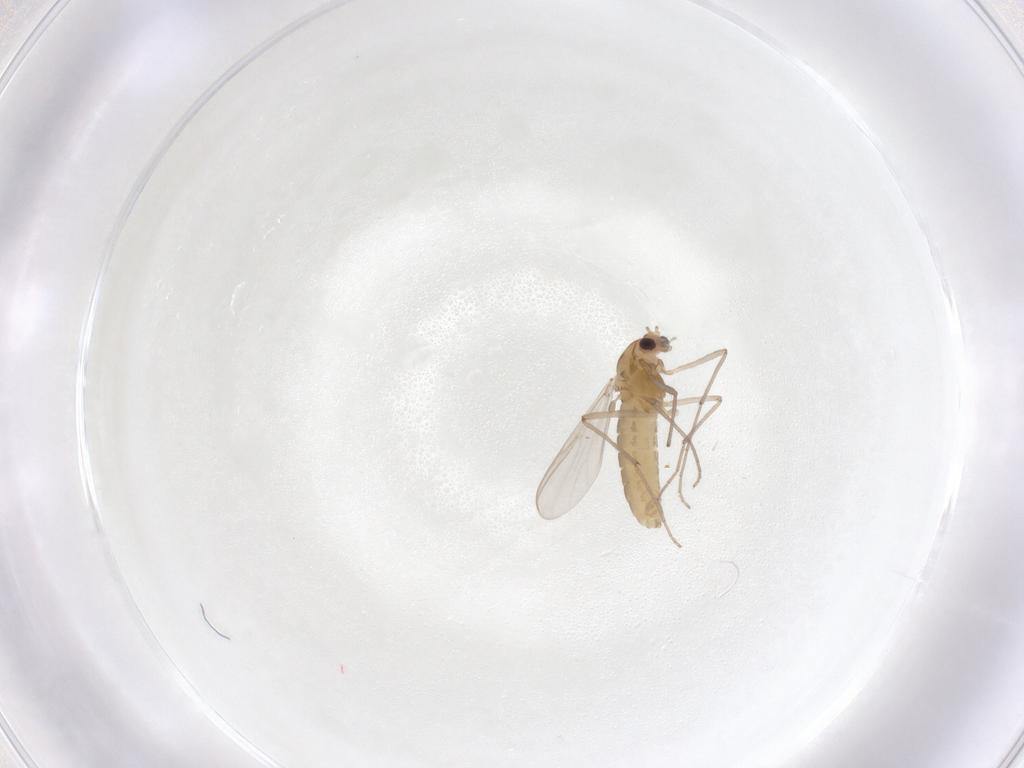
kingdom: Animalia
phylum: Arthropoda
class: Insecta
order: Diptera
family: Chironomidae
